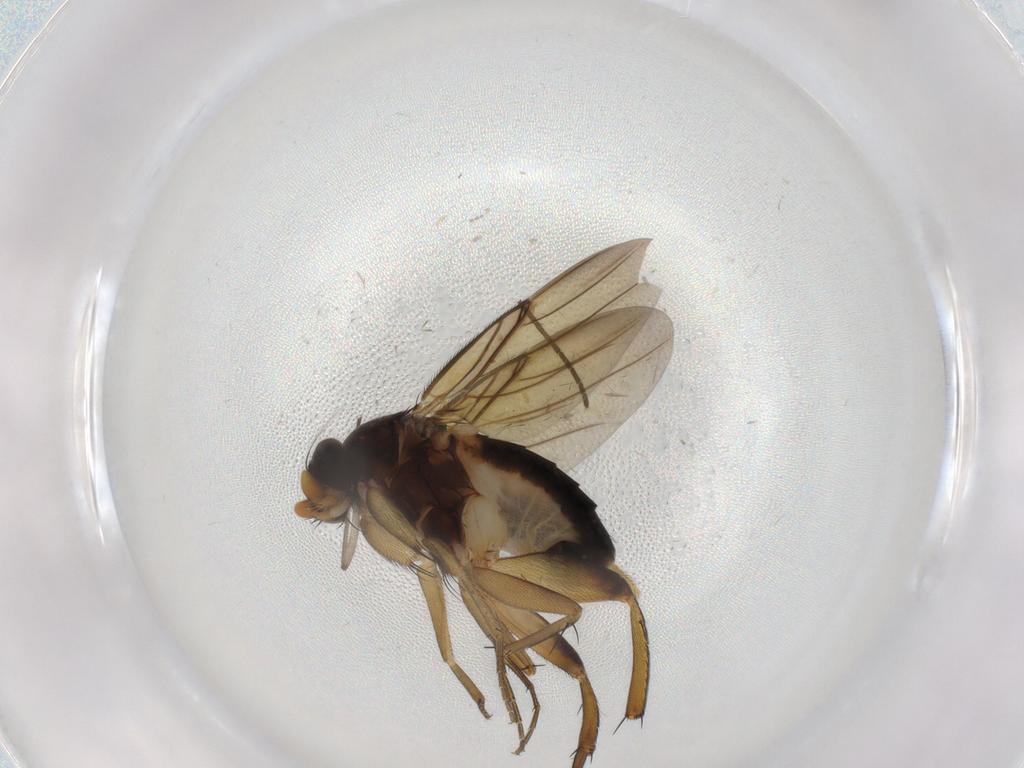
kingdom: Animalia
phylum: Arthropoda
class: Insecta
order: Diptera
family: Phoridae
